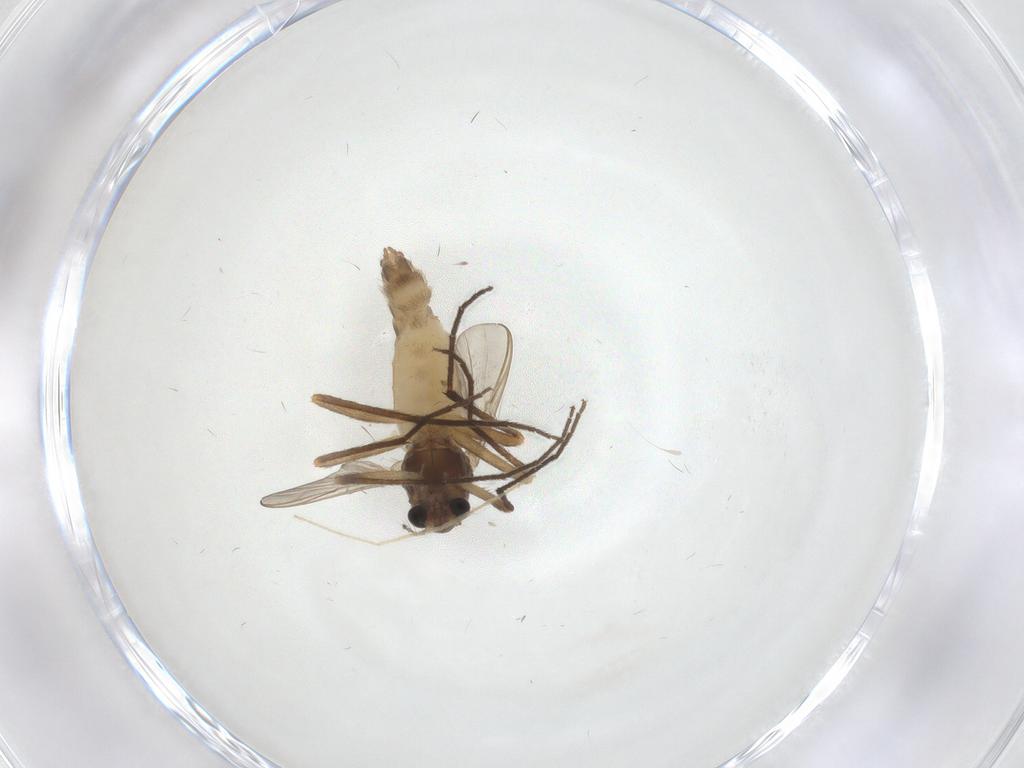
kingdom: Animalia
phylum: Arthropoda
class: Insecta
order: Diptera
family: Chironomidae
